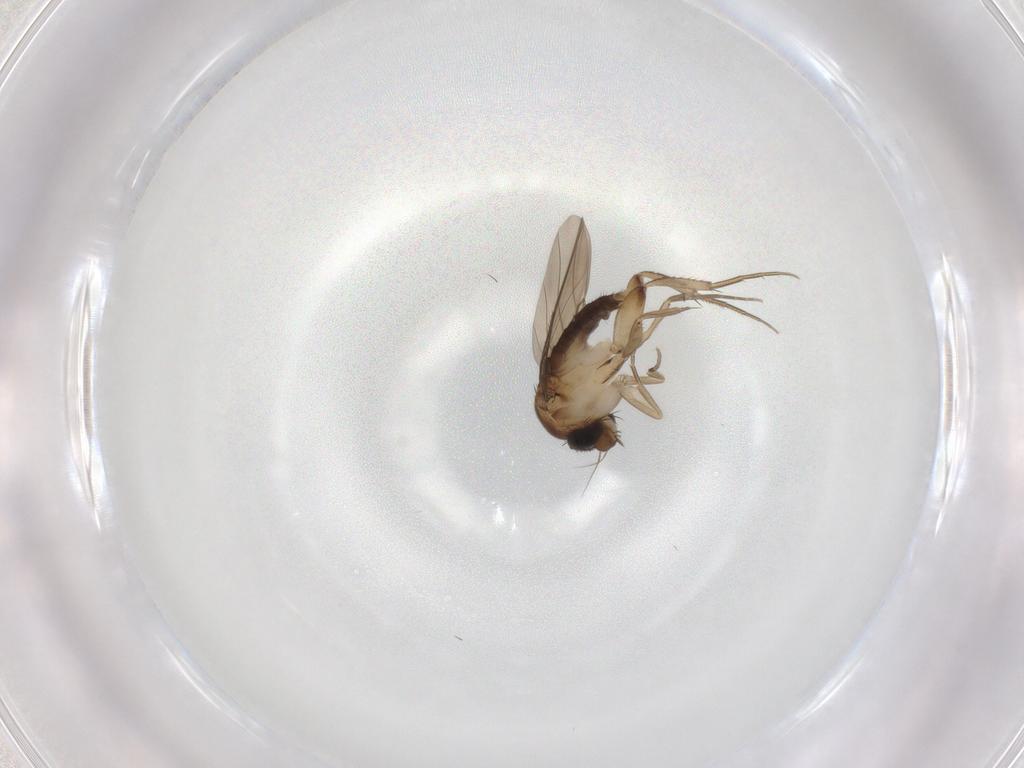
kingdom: Animalia
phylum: Arthropoda
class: Insecta
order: Diptera
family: Phoridae
